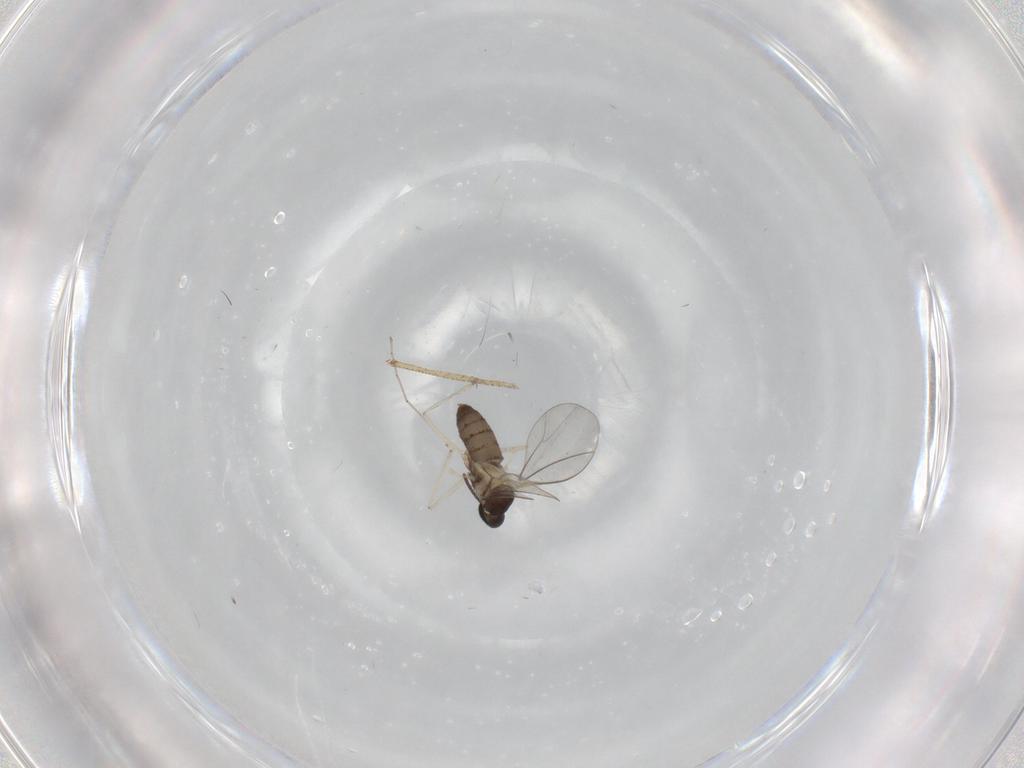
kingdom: Animalia
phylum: Arthropoda
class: Insecta
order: Diptera
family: Cecidomyiidae
